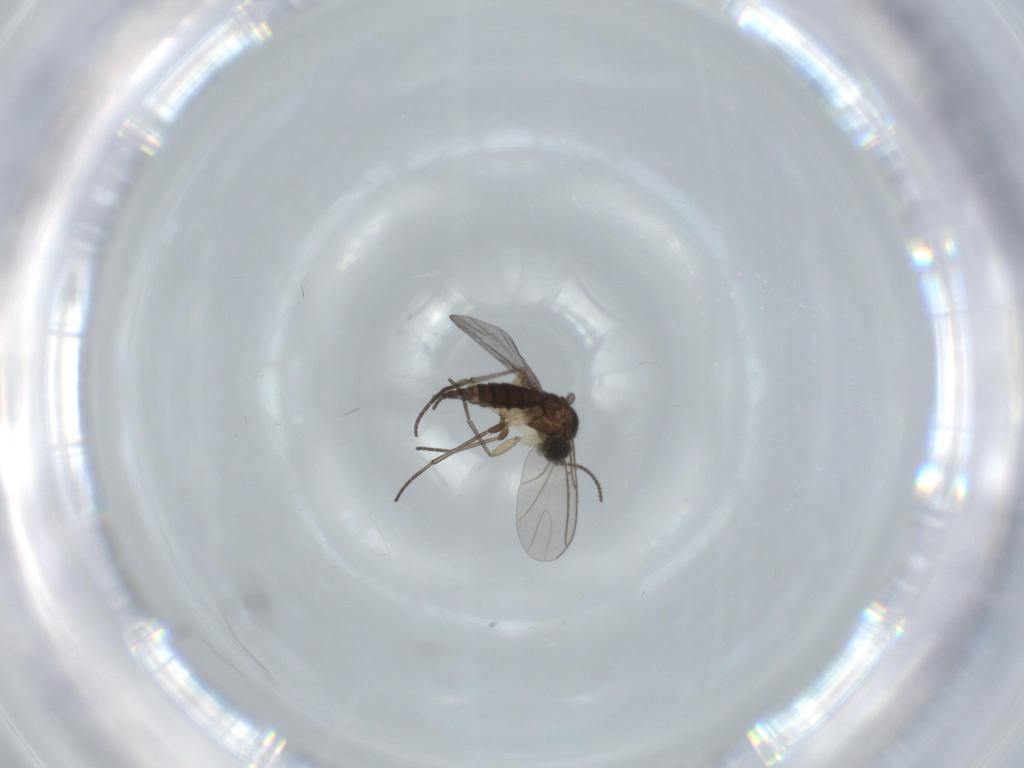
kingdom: Animalia
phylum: Arthropoda
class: Insecta
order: Diptera
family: Sciaridae
